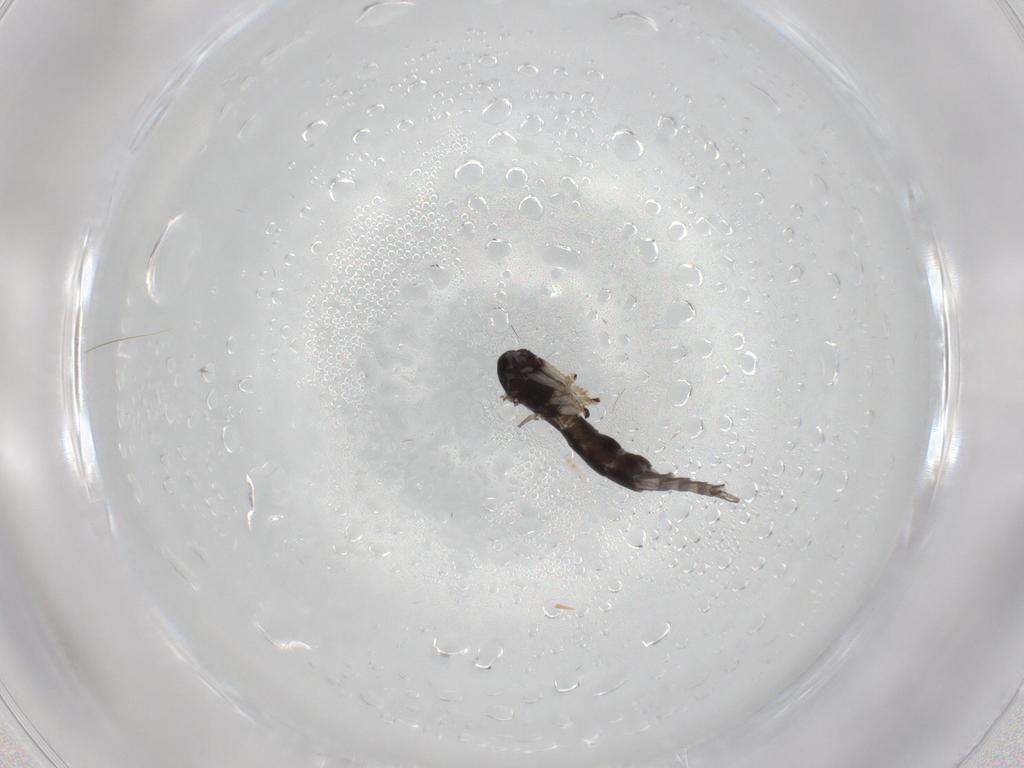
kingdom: Animalia
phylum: Arthropoda
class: Insecta
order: Diptera
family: Sciaridae
